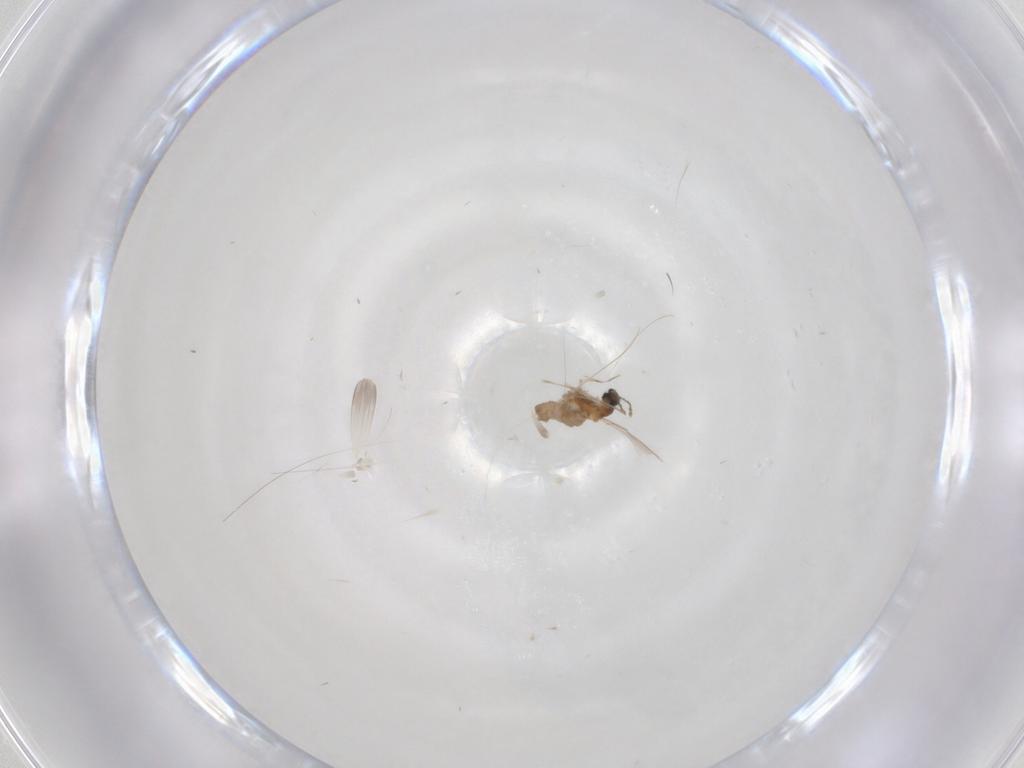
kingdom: Animalia
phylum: Arthropoda
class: Insecta
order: Diptera
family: Cecidomyiidae
